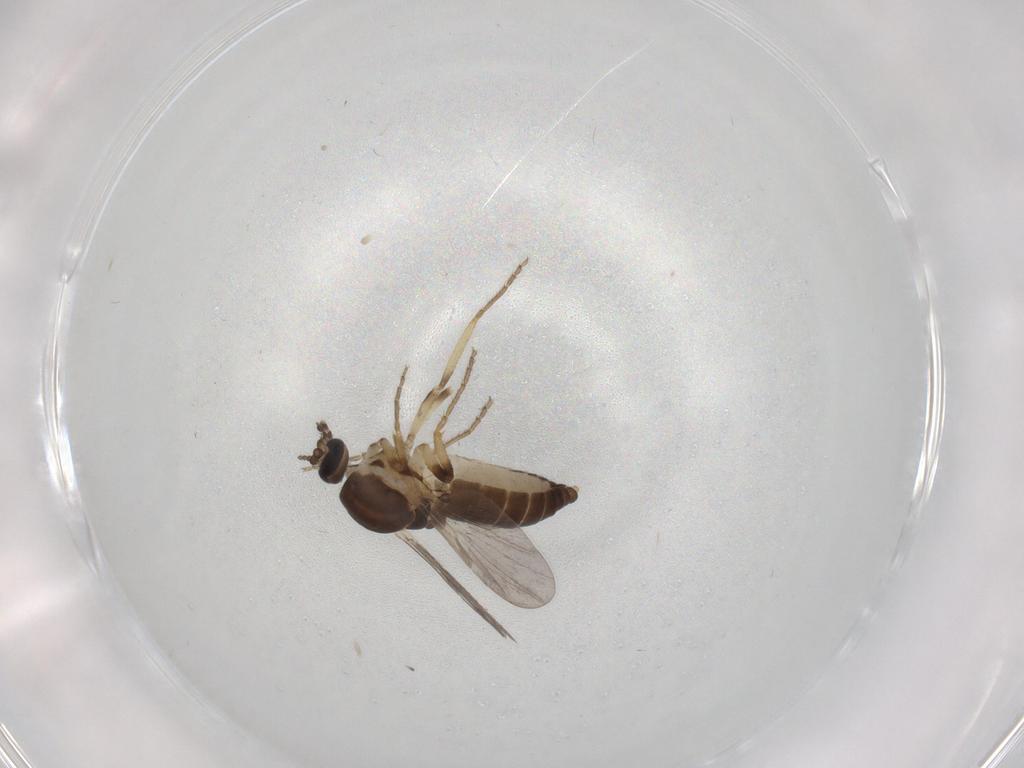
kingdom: Animalia
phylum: Arthropoda
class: Insecta
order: Diptera
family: Ceratopogonidae
